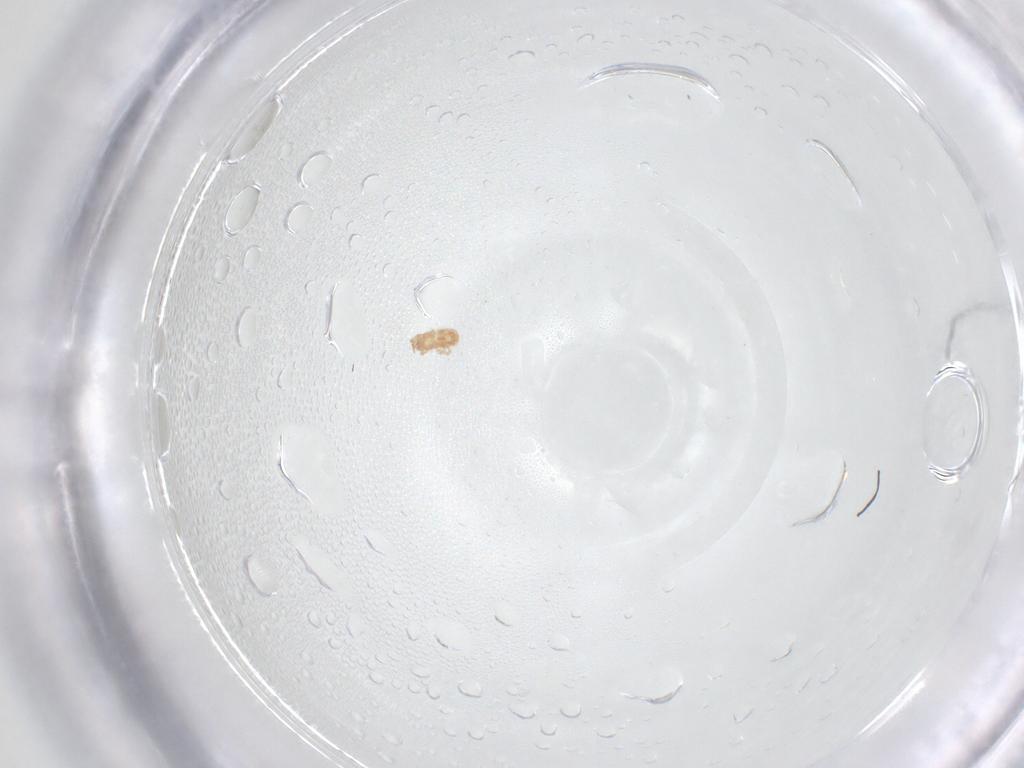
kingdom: Animalia
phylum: Arthropoda
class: Arachnida
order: Mesostigmata
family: Ascidae
